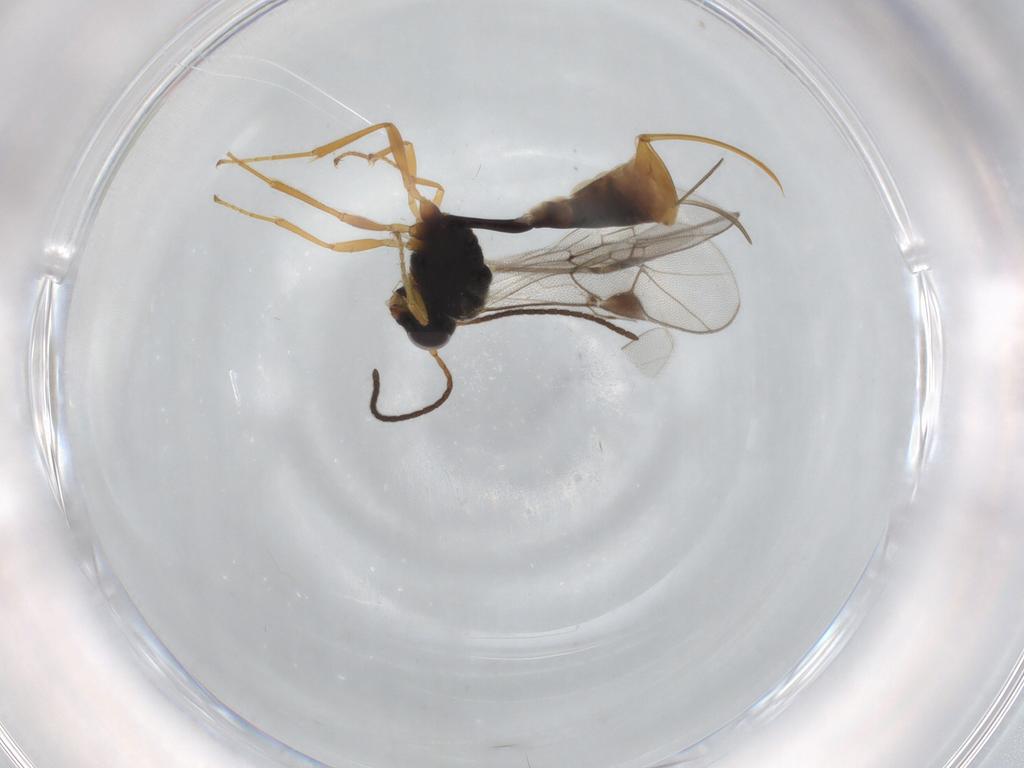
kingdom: Animalia
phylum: Arthropoda
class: Insecta
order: Hymenoptera
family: Ichneumonidae
